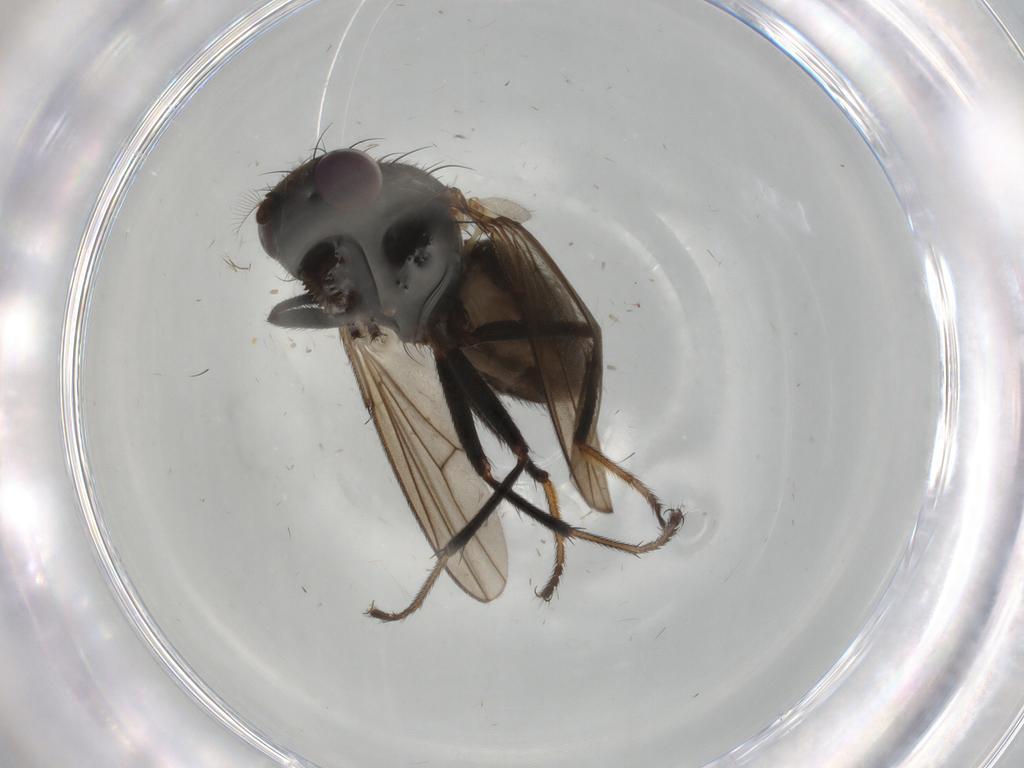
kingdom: Animalia
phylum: Arthropoda
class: Insecta
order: Diptera
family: Ephydridae
